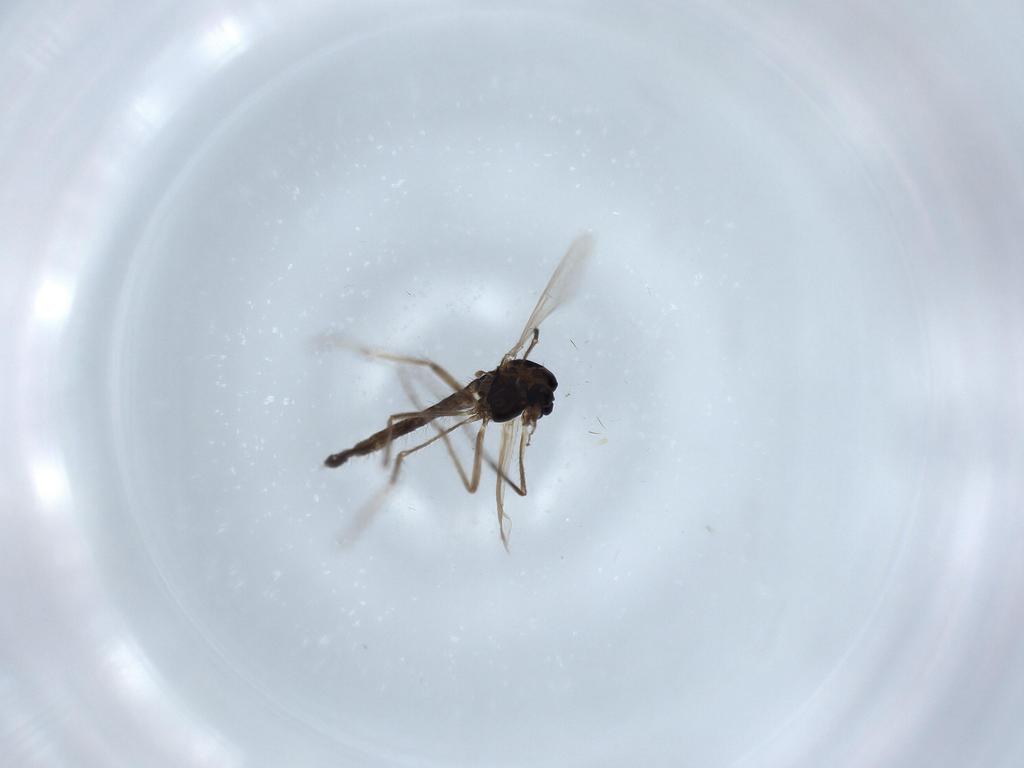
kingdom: Animalia
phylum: Arthropoda
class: Insecta
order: Diptera
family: Chironomidae
